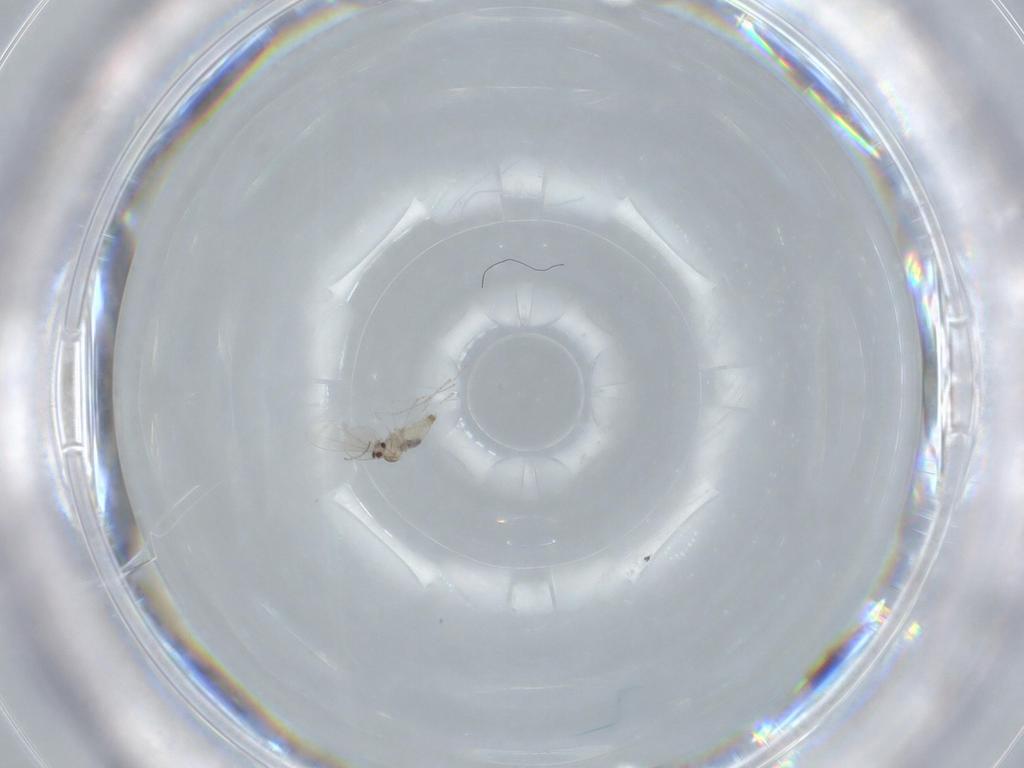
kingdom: Animalia
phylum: Arthropoda
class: Insecta
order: Diptera
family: Cecidomyiidae
